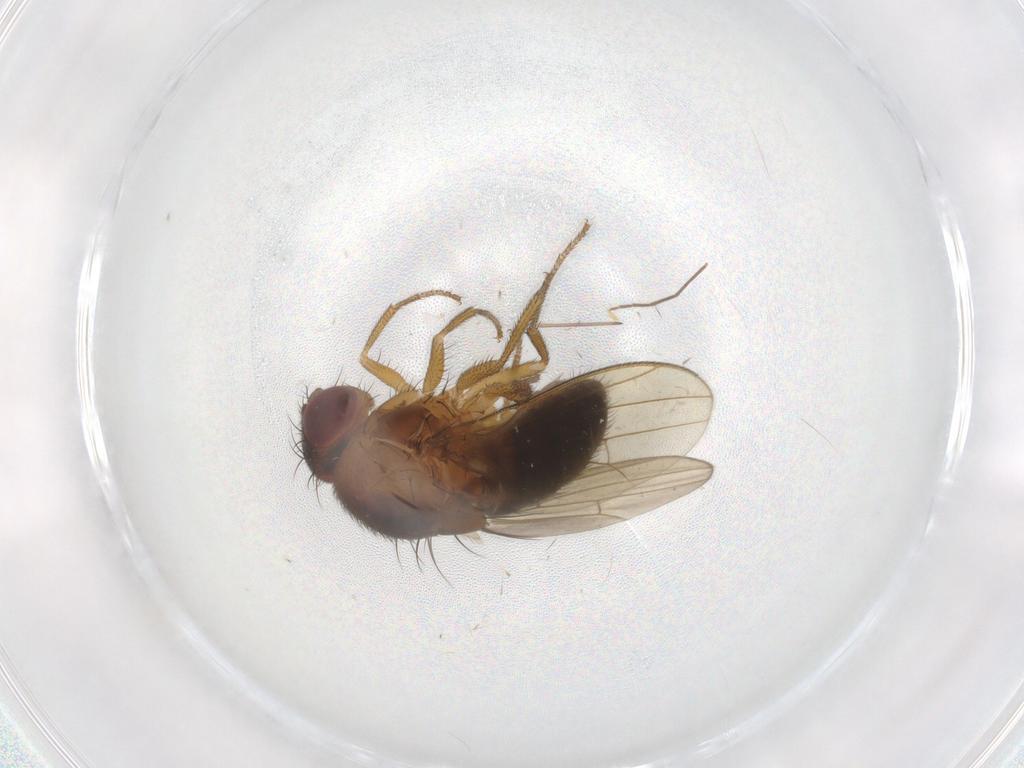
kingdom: Animalia
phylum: Arthropoda
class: Insecta
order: Diptera
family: Drosophilidae
